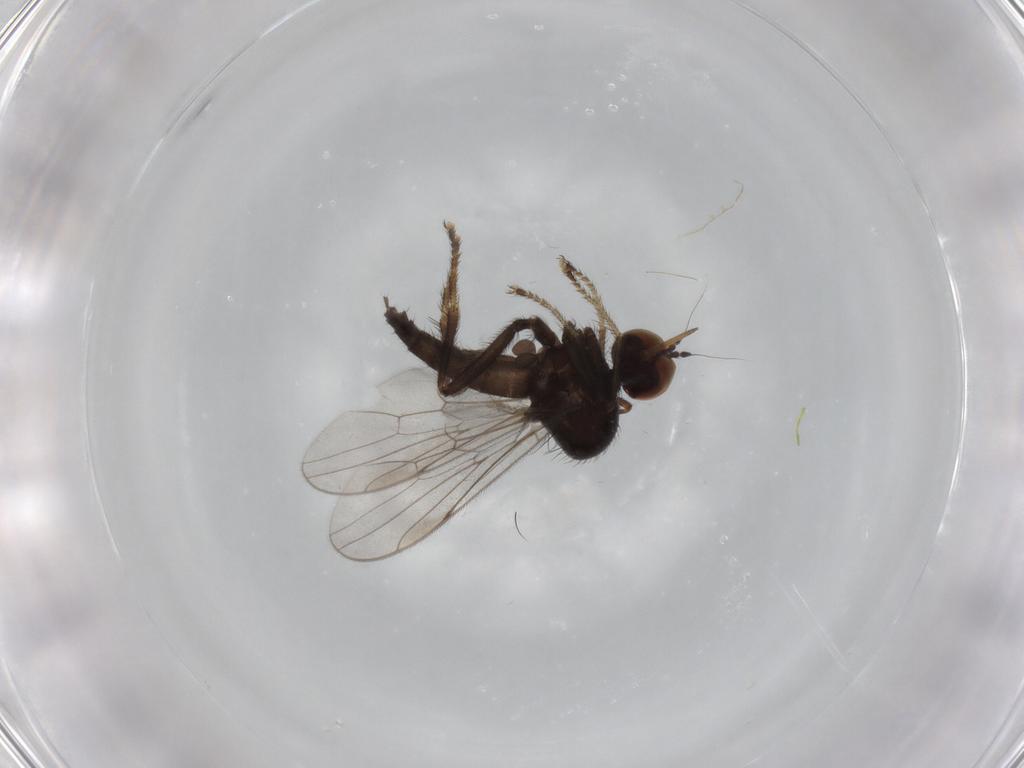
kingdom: Animalia
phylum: Arthropoda
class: Insecta
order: Diptera
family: Hybotidae
